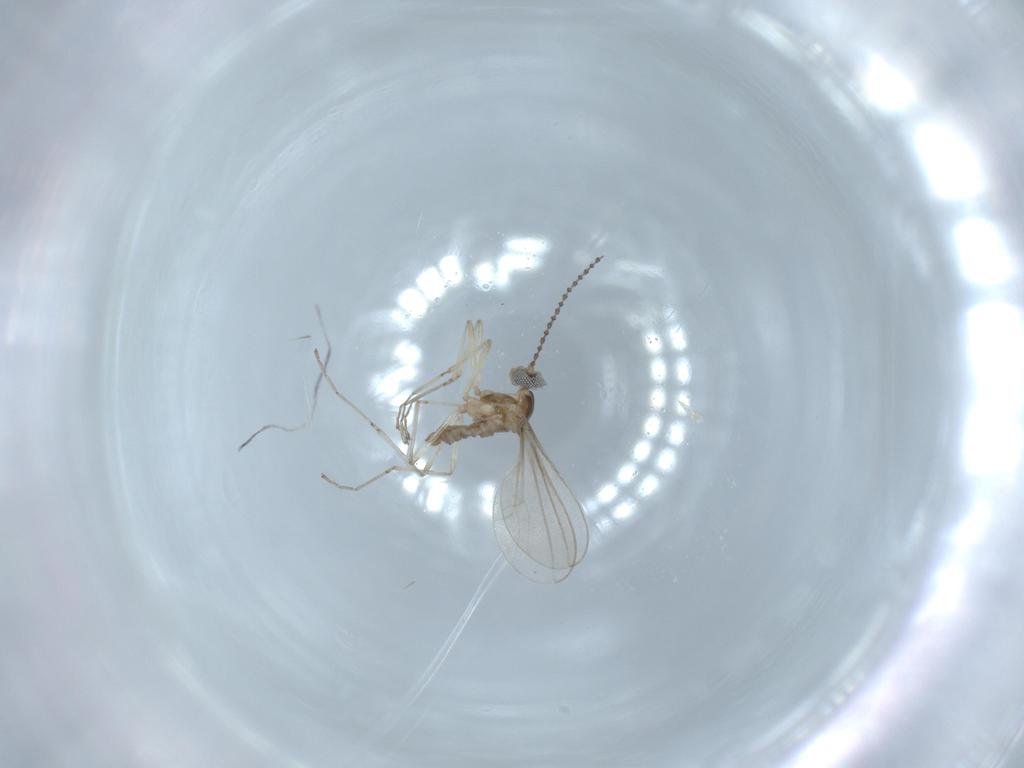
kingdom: Animalia
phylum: Arthropoda
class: Insecta
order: Diptera
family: Cecidomyiidae
